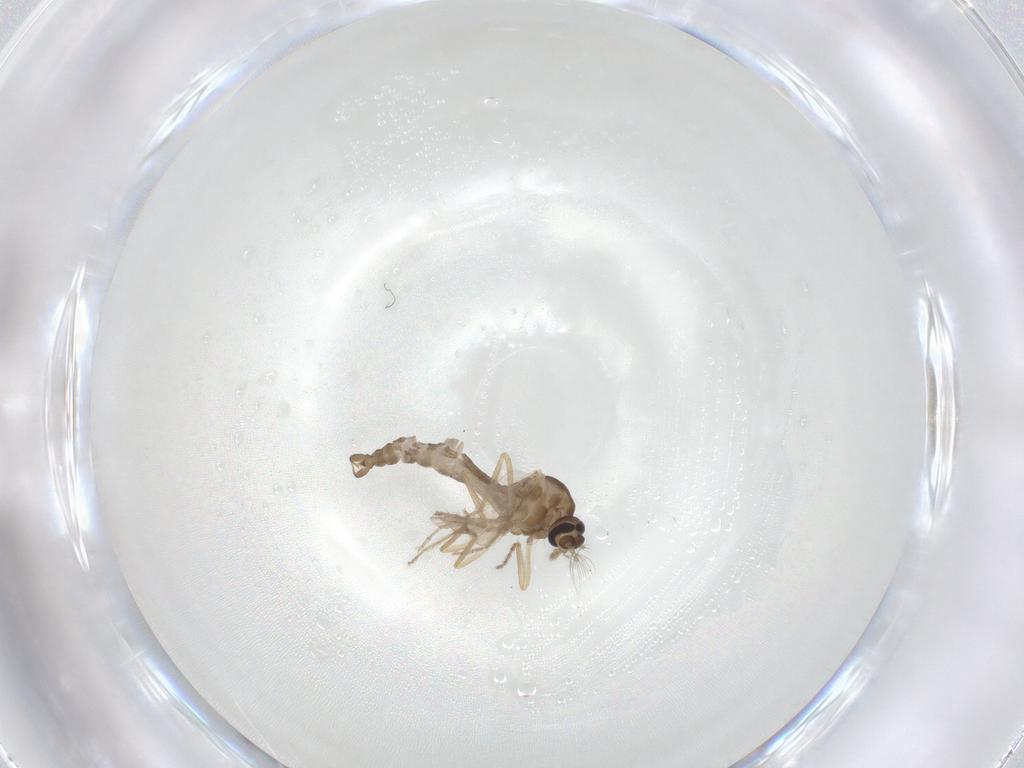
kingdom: Animalia
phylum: Arthropoda
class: Insecta
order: Diptera
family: Ceratopogonidae
